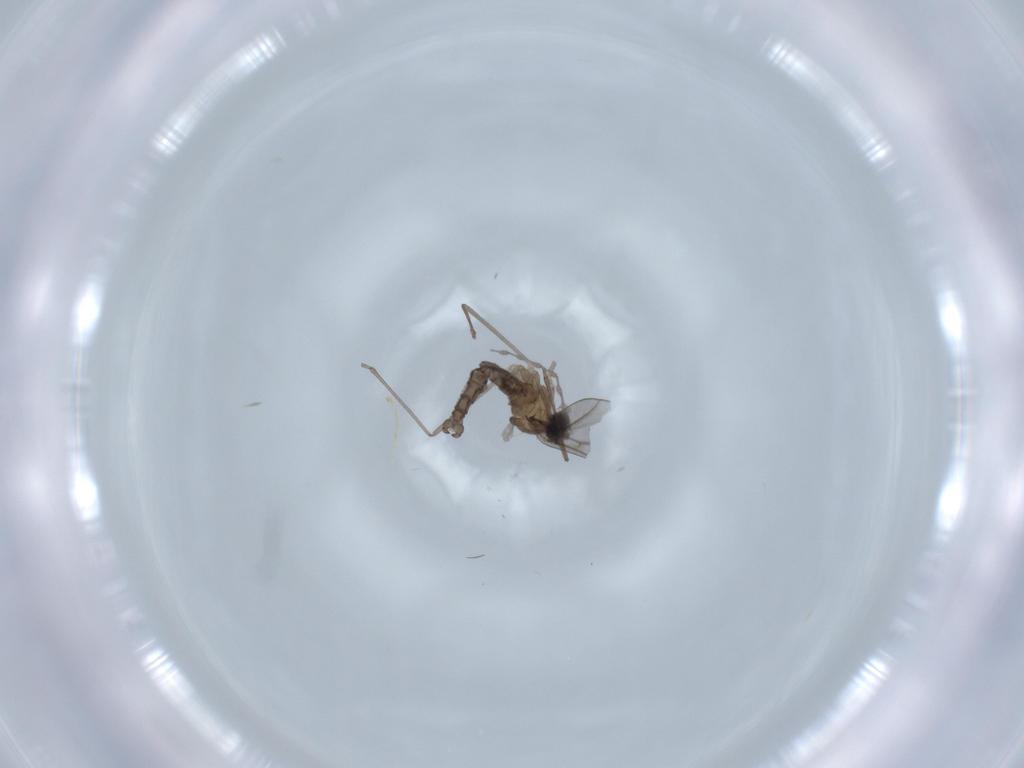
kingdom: Animalia
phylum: Arthropoda
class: Insecta
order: Diptera
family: Cecidomyiidae
